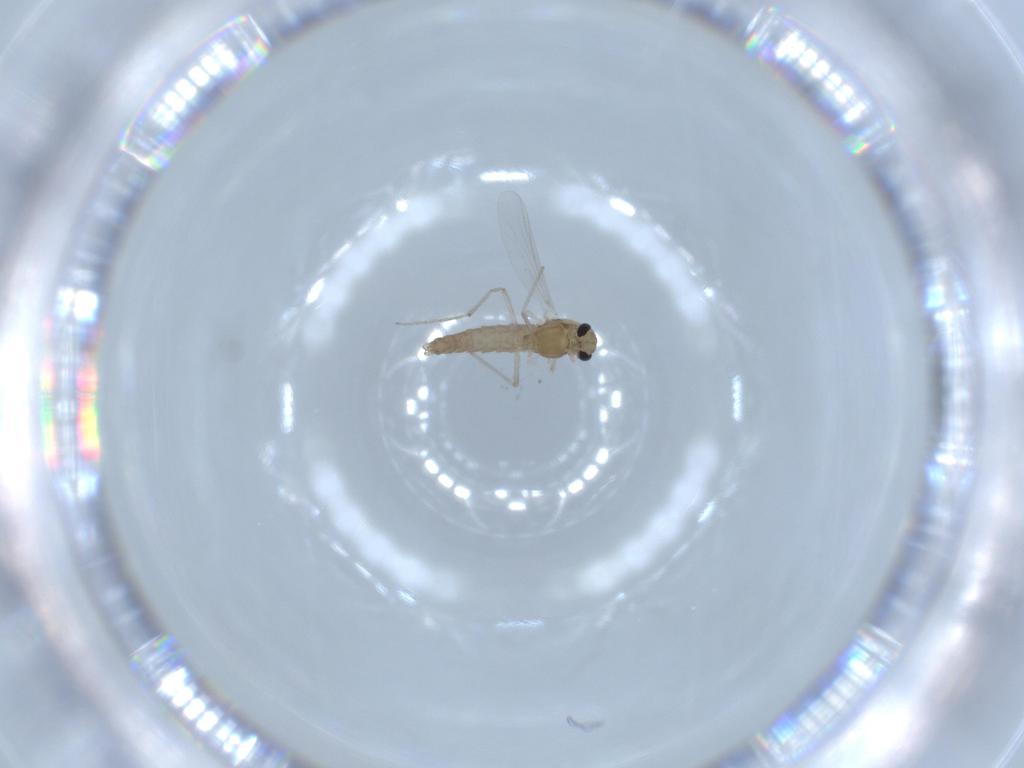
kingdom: Animalia
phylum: Arthropoda
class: Insecta
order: Diptera
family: Chironomidae
